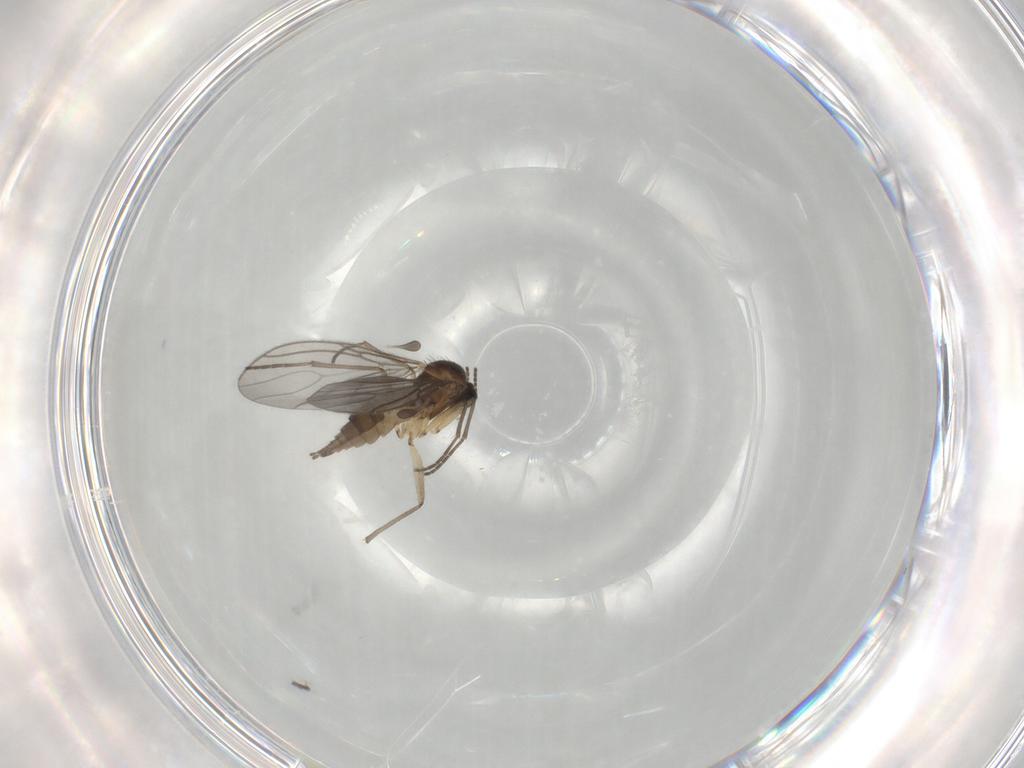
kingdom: Animalia
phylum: Arthropoda
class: Insecta
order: Diptera
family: Sciaridae
